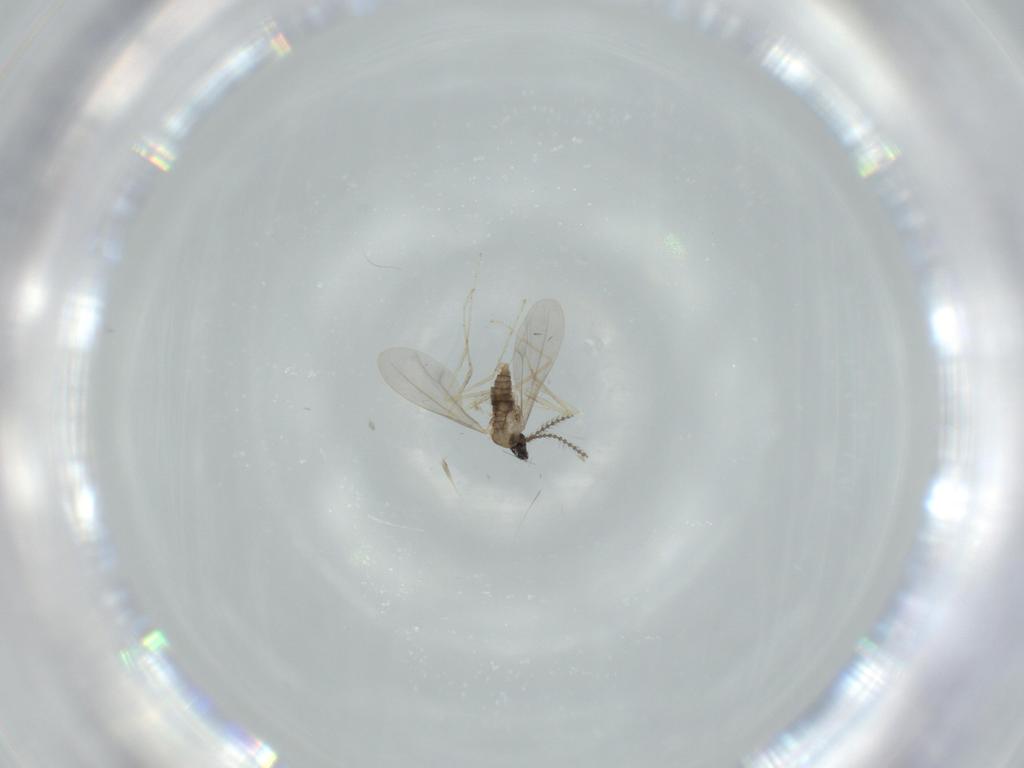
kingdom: Animalia
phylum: Arthropoda
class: Insecta
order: Diptera
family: Cecidomyiidae
